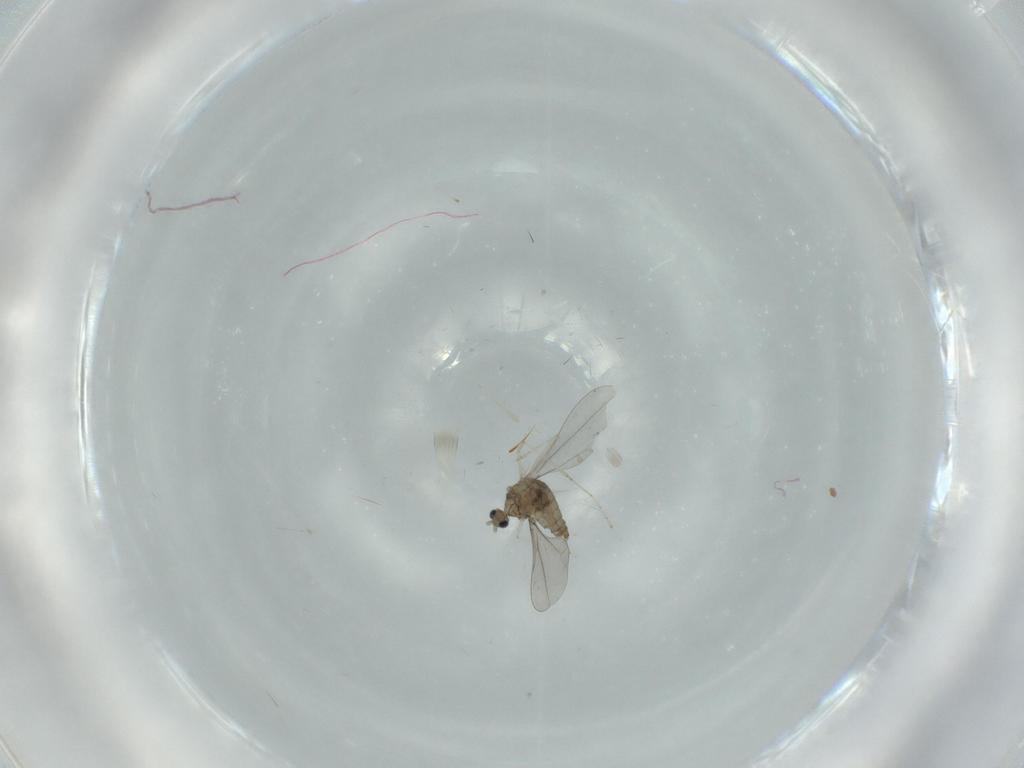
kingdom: Animalia
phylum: Arthropoda
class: Insecta
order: Diptera
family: Cecidomyiidae
